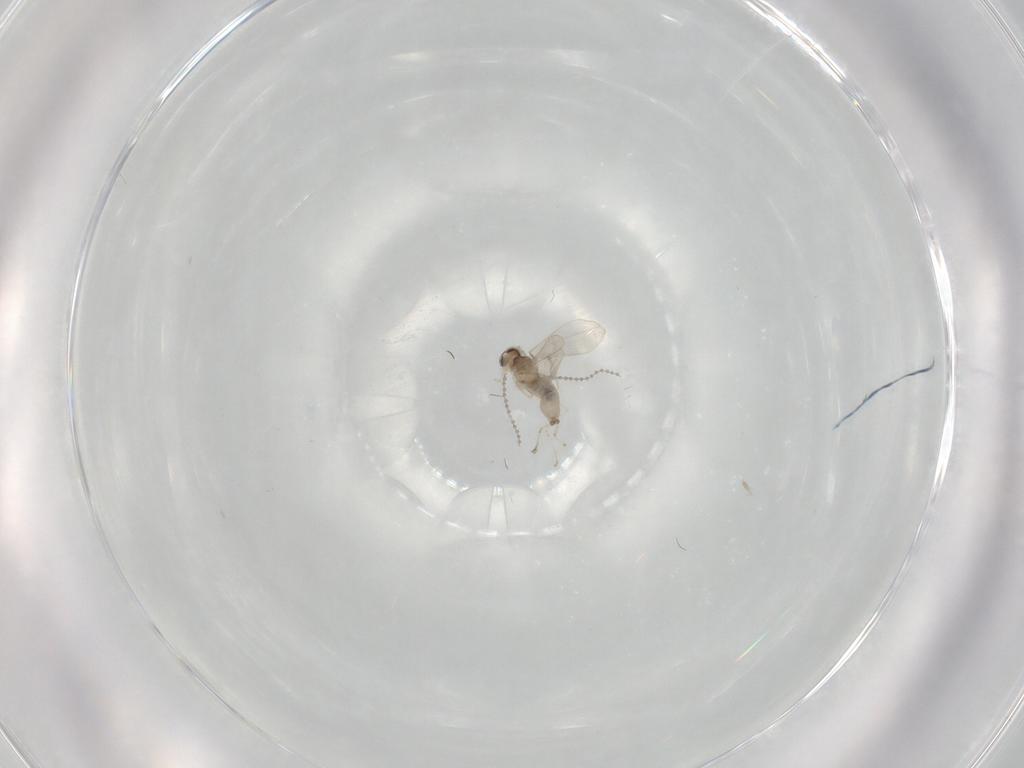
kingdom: Animalia
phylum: Arthropoda
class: Insecta
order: Diptera
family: Cecidomyiidae
